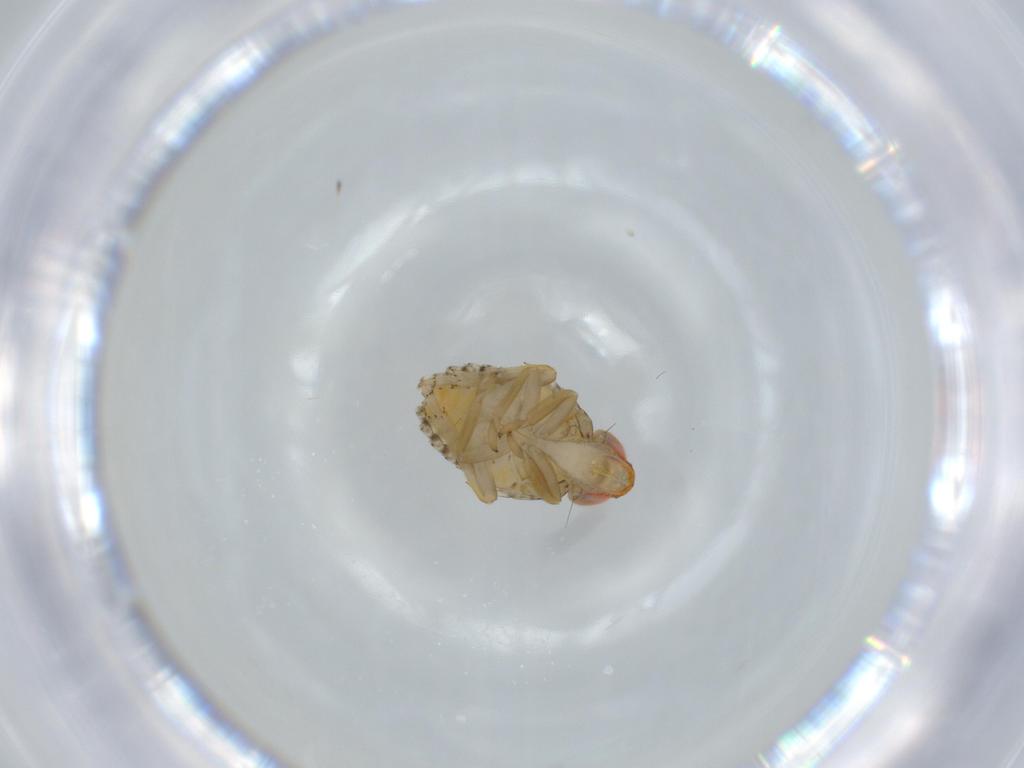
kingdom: Animalia
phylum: Arthropoda
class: Insecta
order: Hemiptera
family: Fulgoroidea_incertae_sedis
